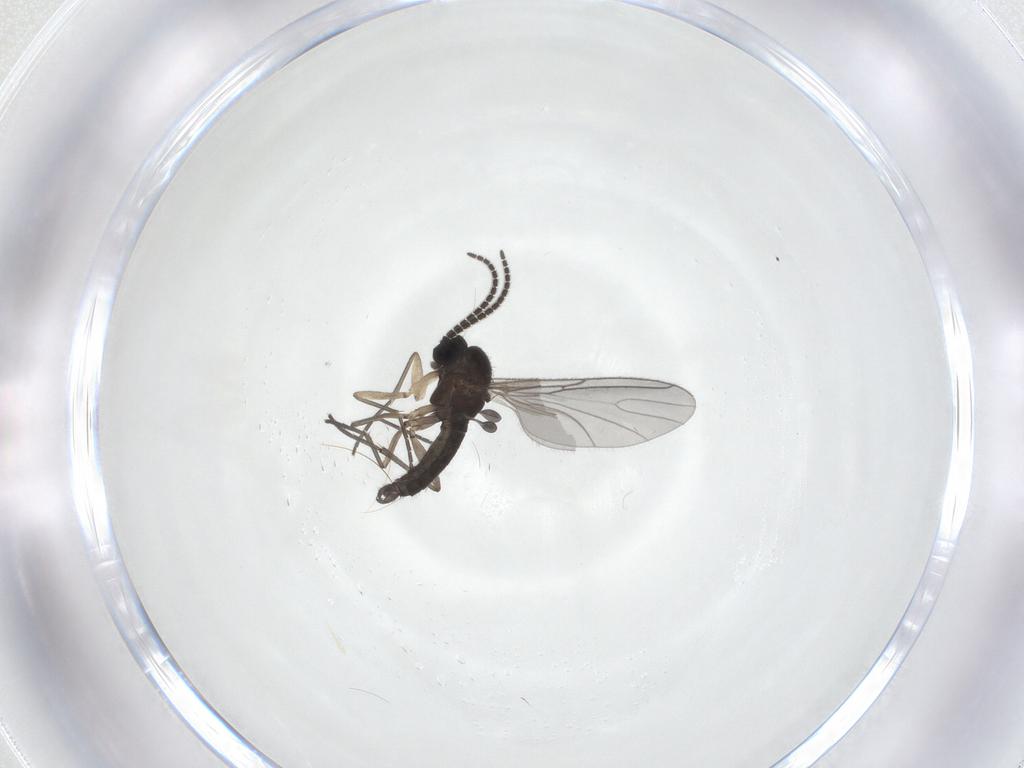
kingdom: Animalia
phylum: Arthropoda
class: Insecta
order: Diptera
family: Sciaridae
